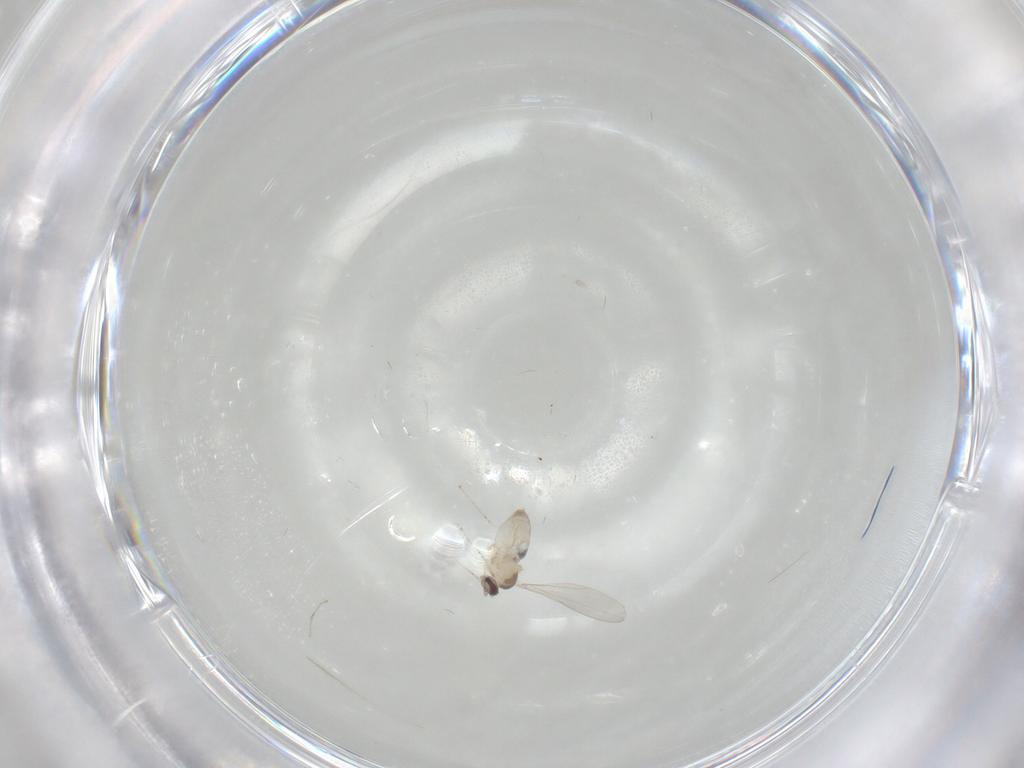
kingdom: Animalia
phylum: Arthropoda
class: Insecta
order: Diptera
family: Cecidomyiidae
